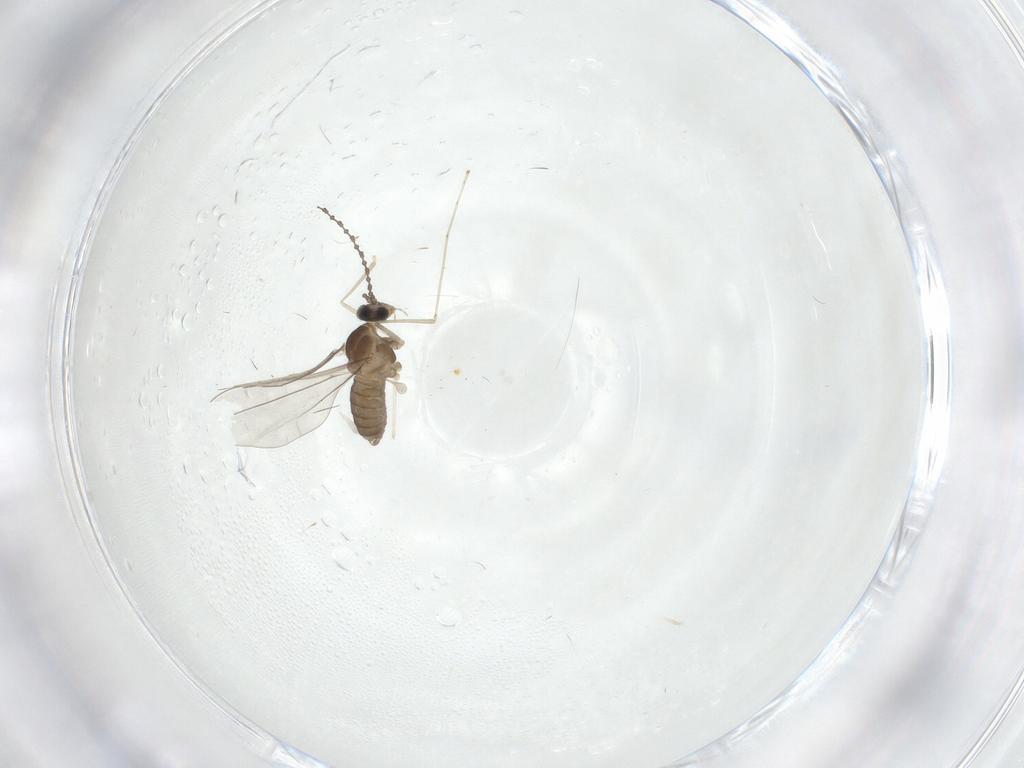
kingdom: Animalia
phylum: Arthropoda
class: Insecta
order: Diptera
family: Cecidomyiidae
